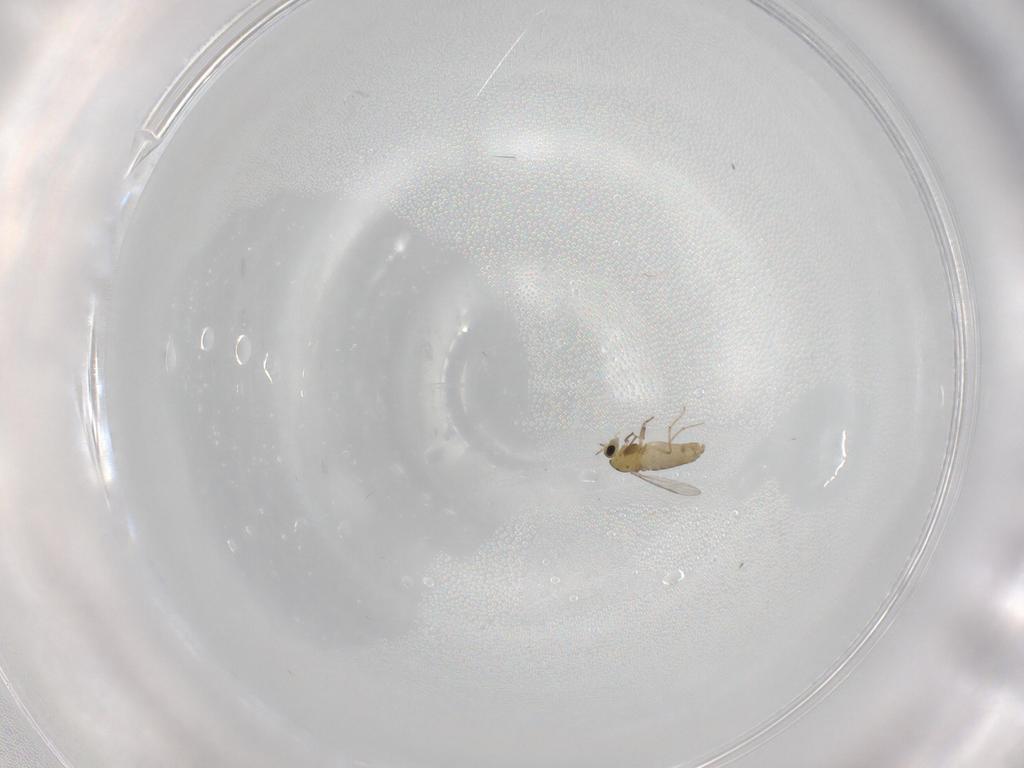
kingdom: Animalia
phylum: Arthropoda
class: Insecta
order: Diptera
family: Chironomidae
